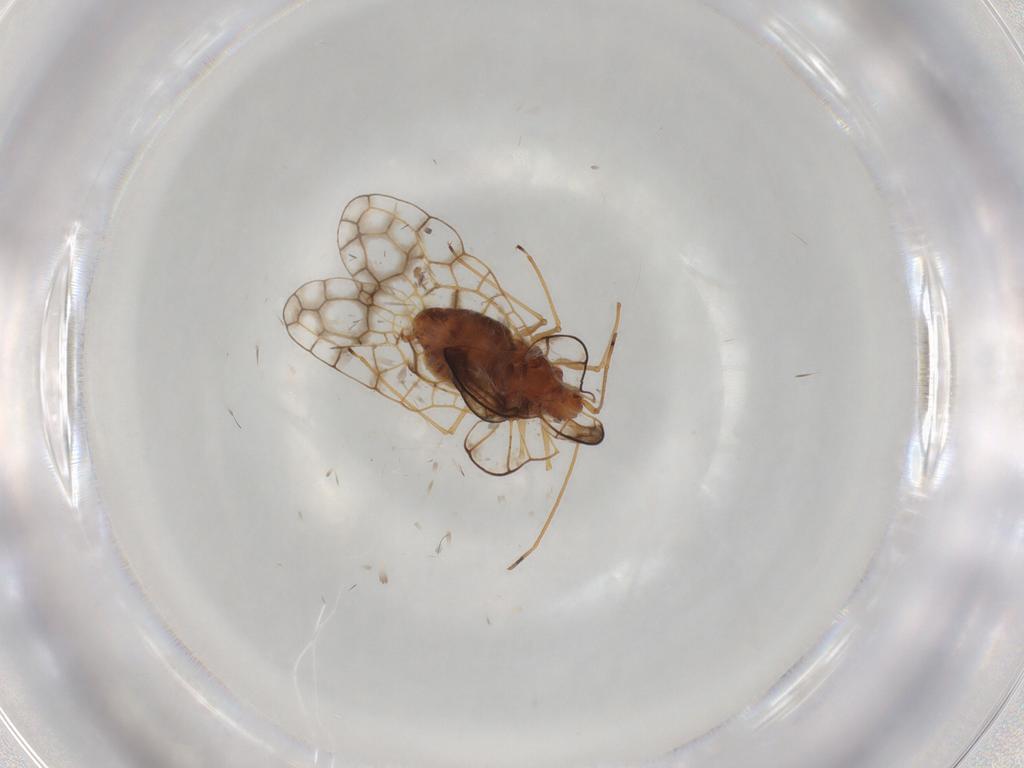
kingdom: Animalia
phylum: Arthropoda
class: Insecta
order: Hemiptera
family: Tingidae
